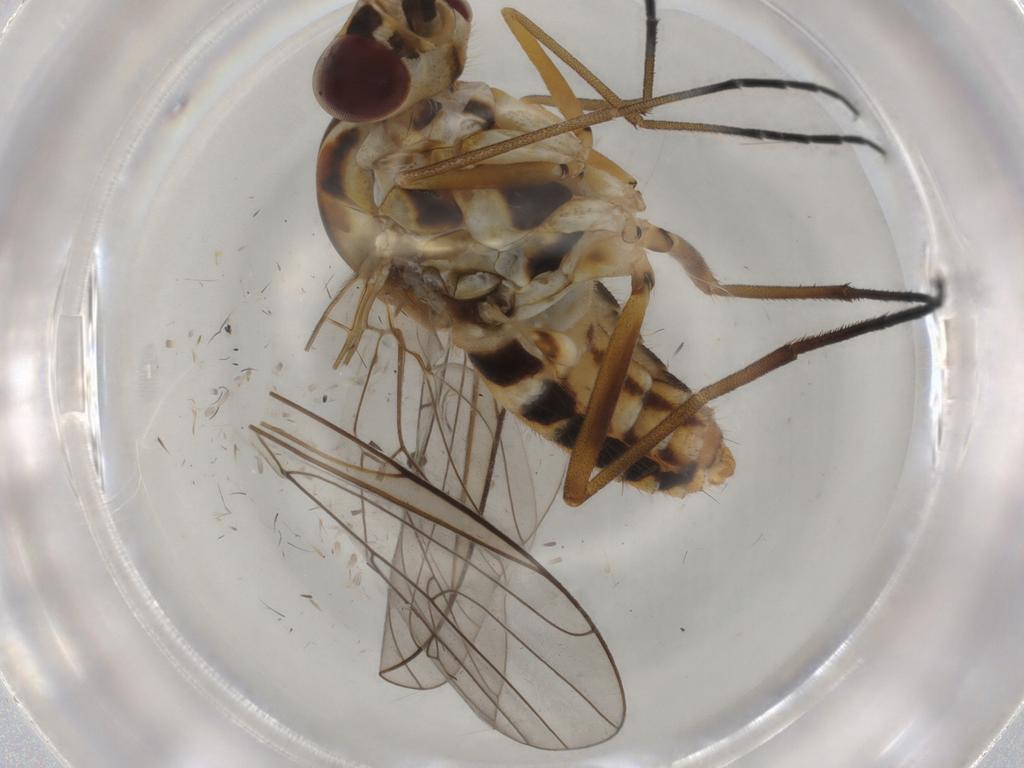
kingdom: Animalia
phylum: Arthropoda
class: Insecta
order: Diptera
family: Bombyliidae
